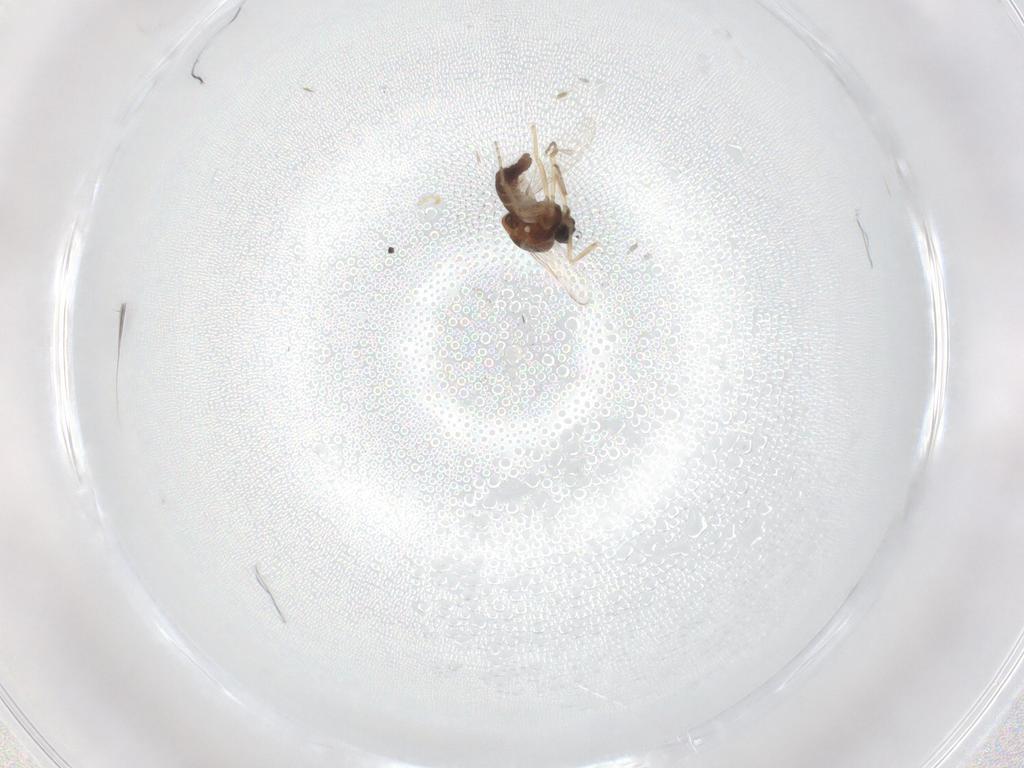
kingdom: Animalia
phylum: Arthropoda
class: Insecta
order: Diptera
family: Ceratopogonidae
